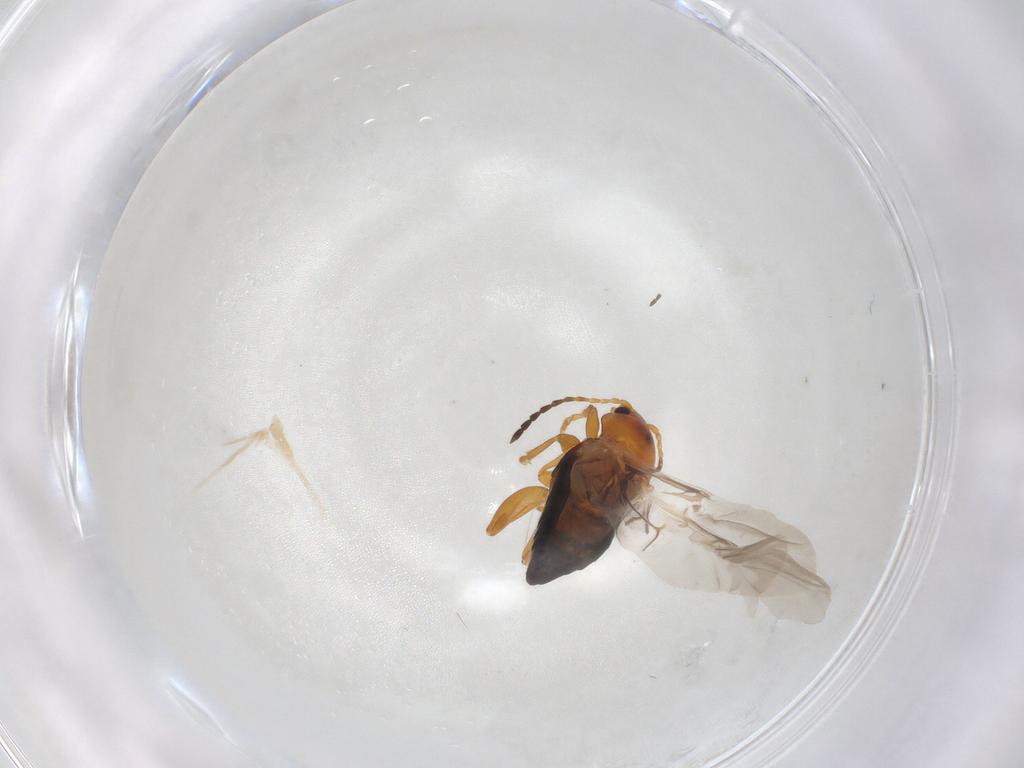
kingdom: Animalia
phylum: Arthropoda
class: Insecta
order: Coleoptera
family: Chrysomelidae
